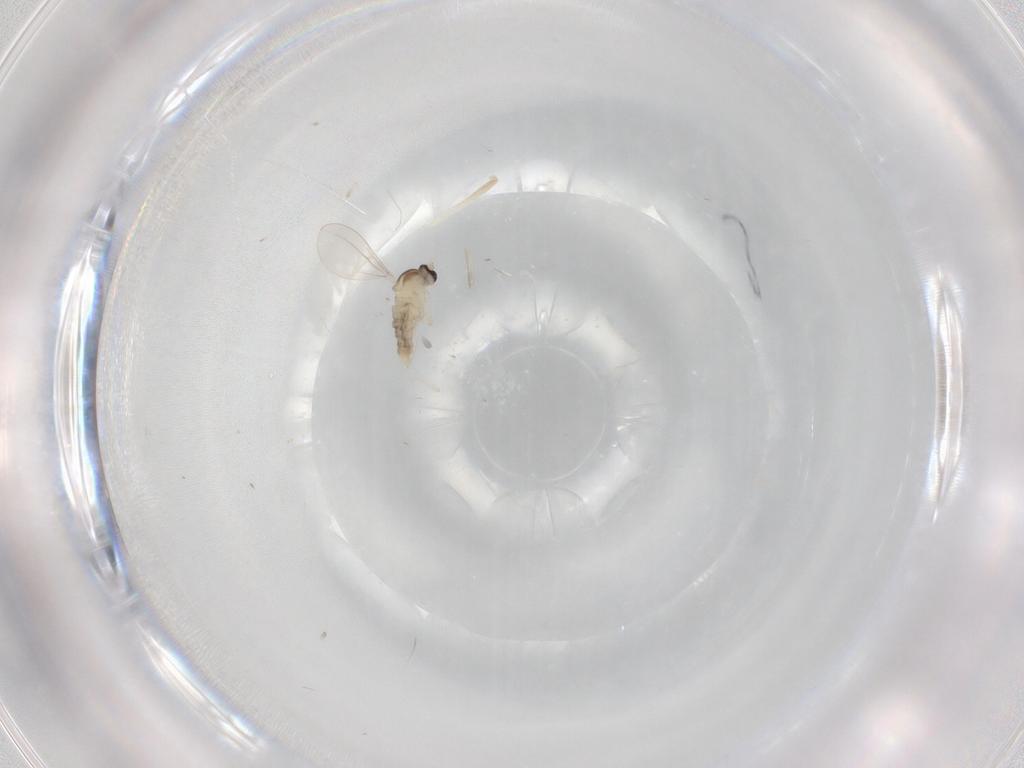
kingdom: Animalia
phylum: Arthropoda
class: Insecta
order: Diptera
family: Cecidomyiidae
